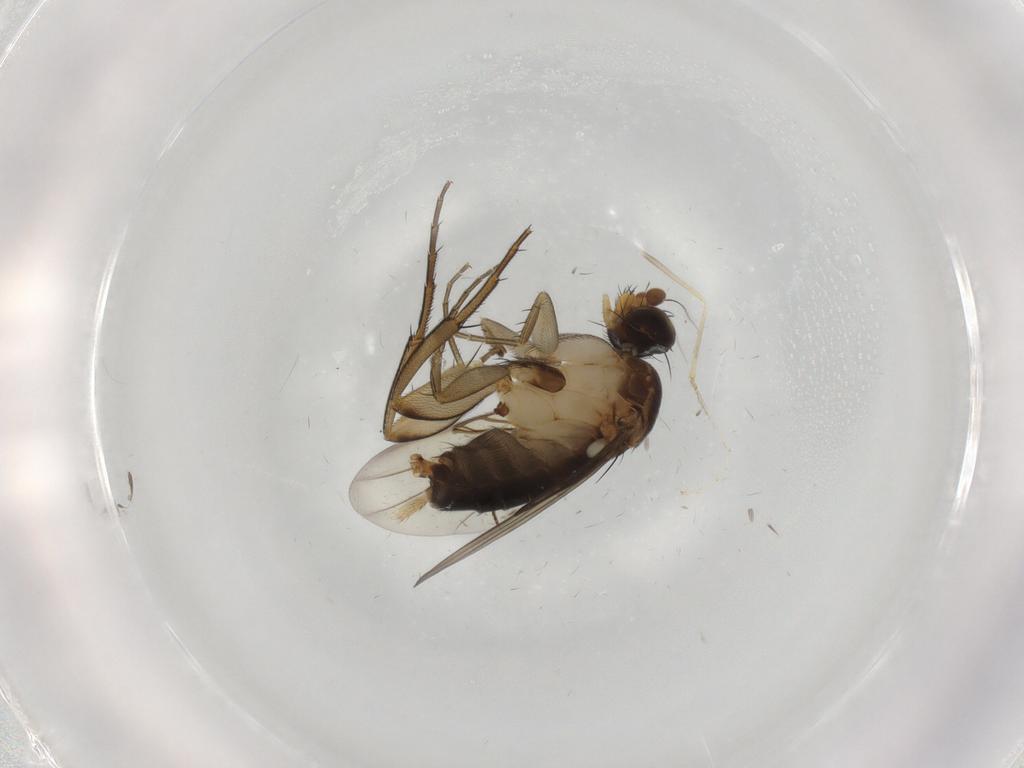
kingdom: Animalia
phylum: Arthropoda
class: Insecta
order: Diptera
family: Phoridae
